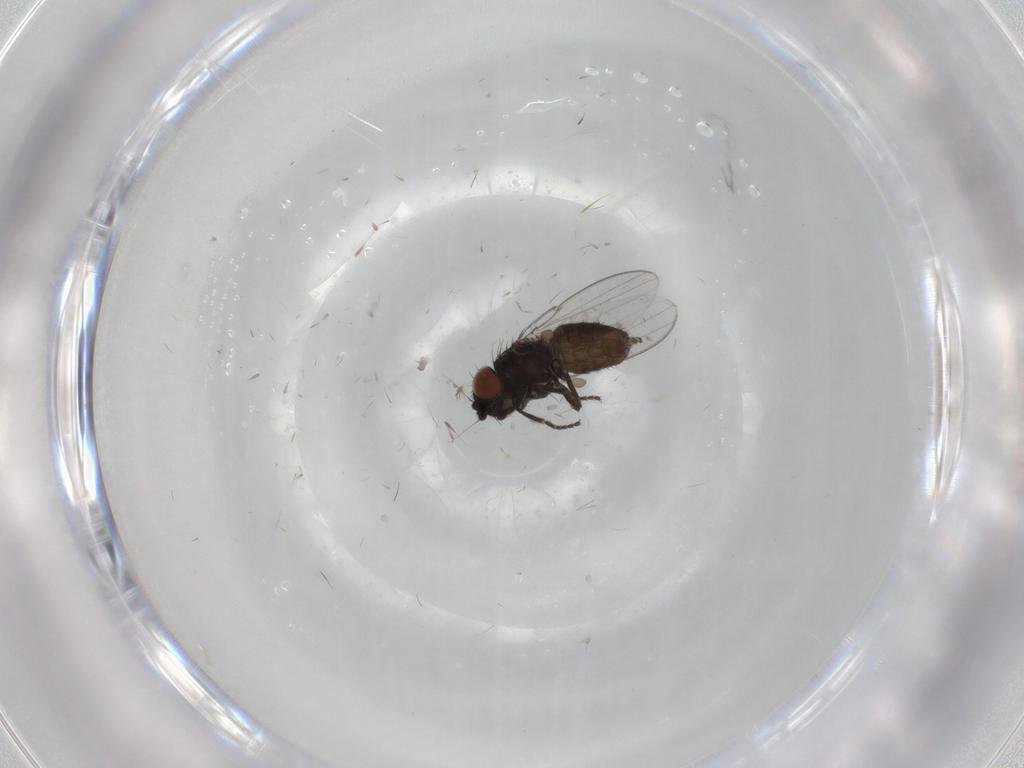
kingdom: Animalia
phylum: Arthropoda
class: Insecta
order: Diptera
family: Milichiidae
